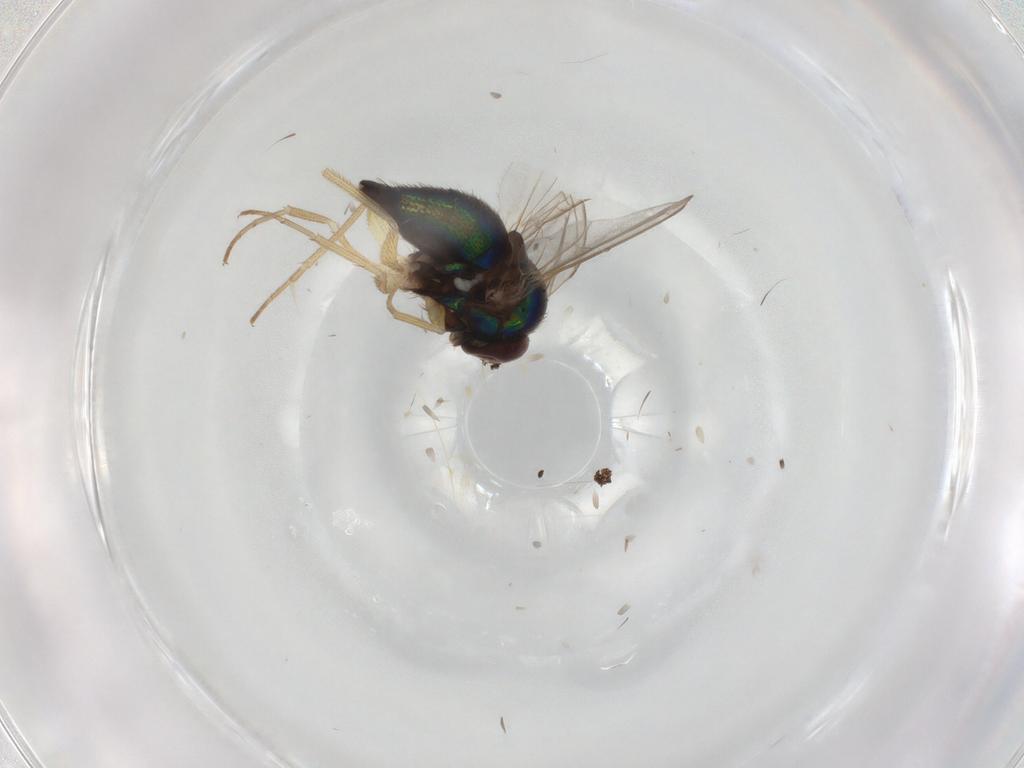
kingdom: Animalia
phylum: Arthropoda
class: Insecta
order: Diptera
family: Dolichopodidae
